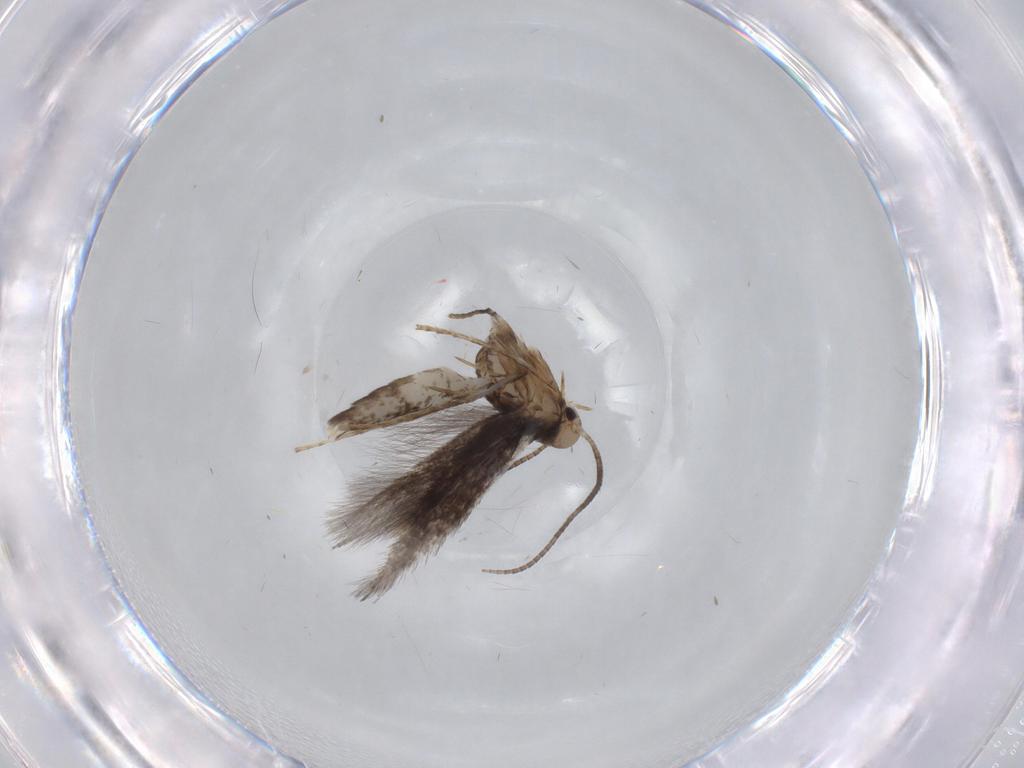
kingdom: Animalia
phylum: Arthropoda
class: Insecta
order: Lepidoptera
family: Nepticulidae
